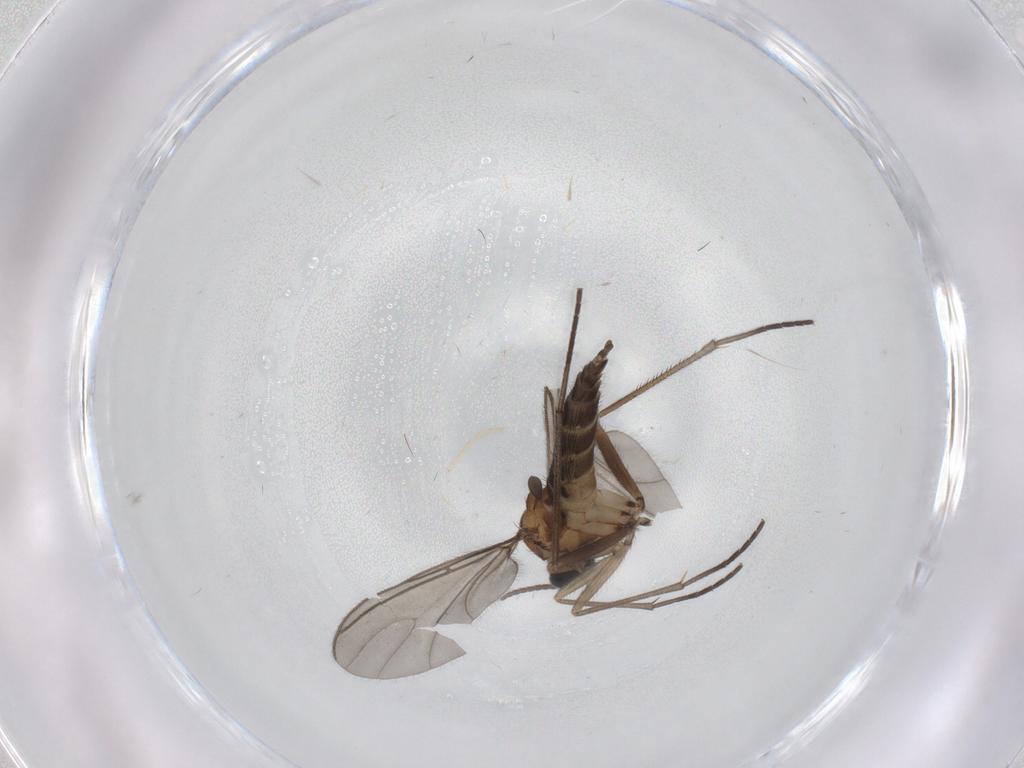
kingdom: Animalia
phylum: Arthropoda
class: Insecta
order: Diptera
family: Sciaridae
